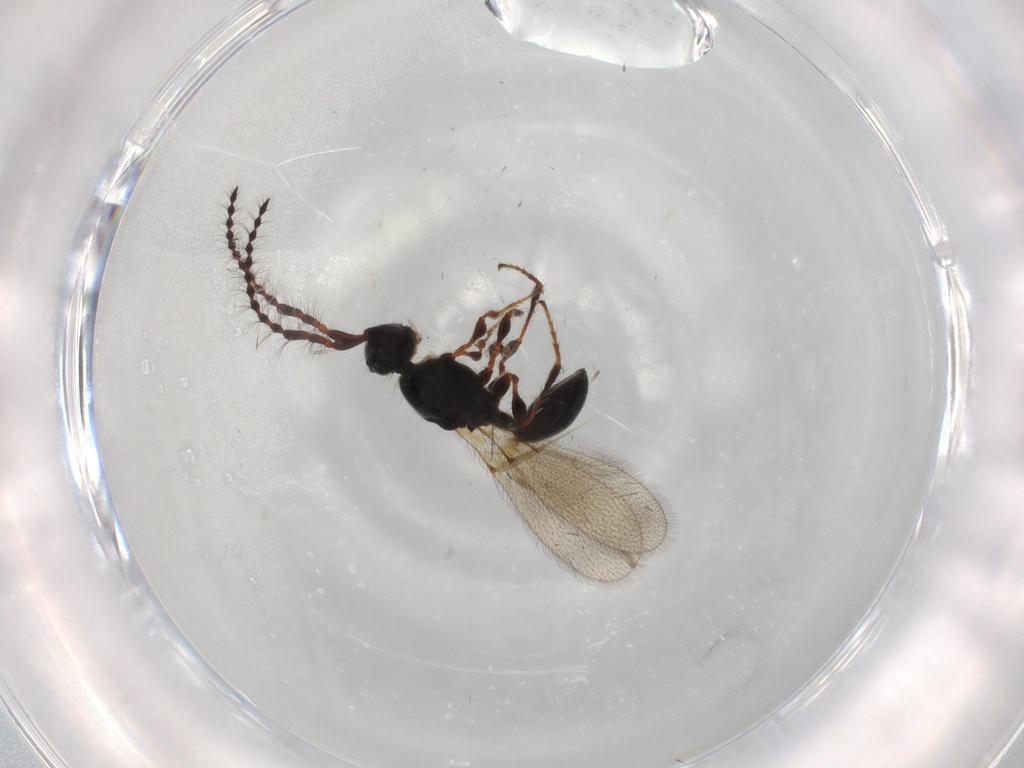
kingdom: Animalia
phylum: Arthropoda
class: Insecta
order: Hymenoptera
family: Diapriidae
